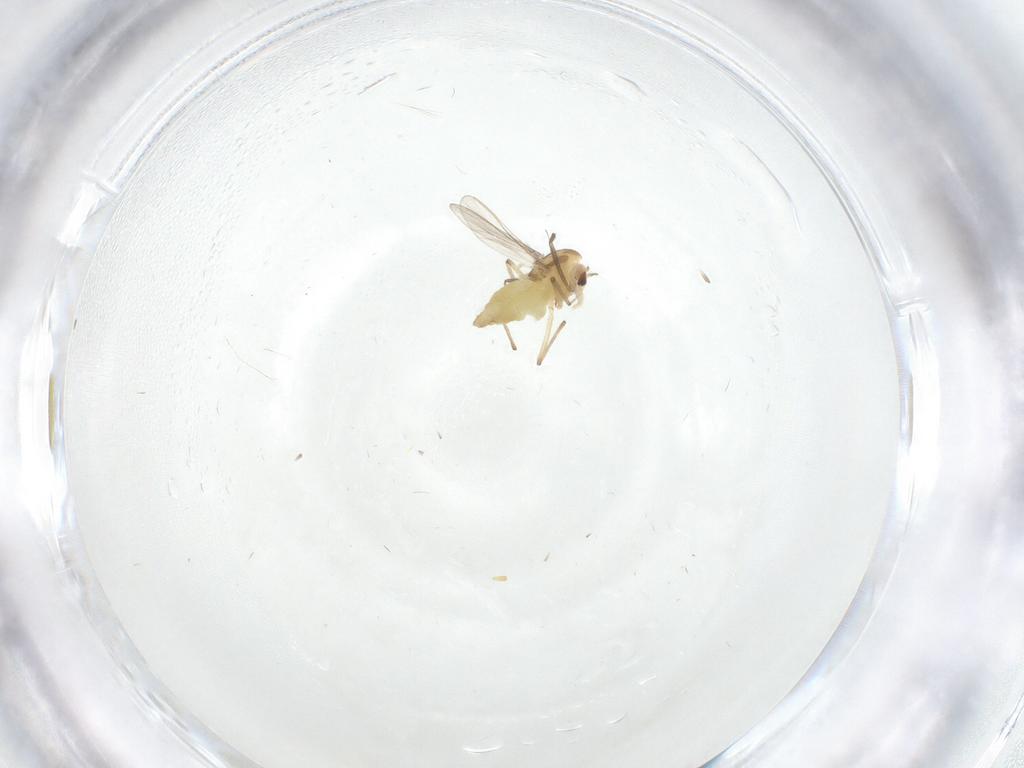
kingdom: Animalia
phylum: Arthropoda
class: Insecta
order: Diptera
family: Chironomidae
